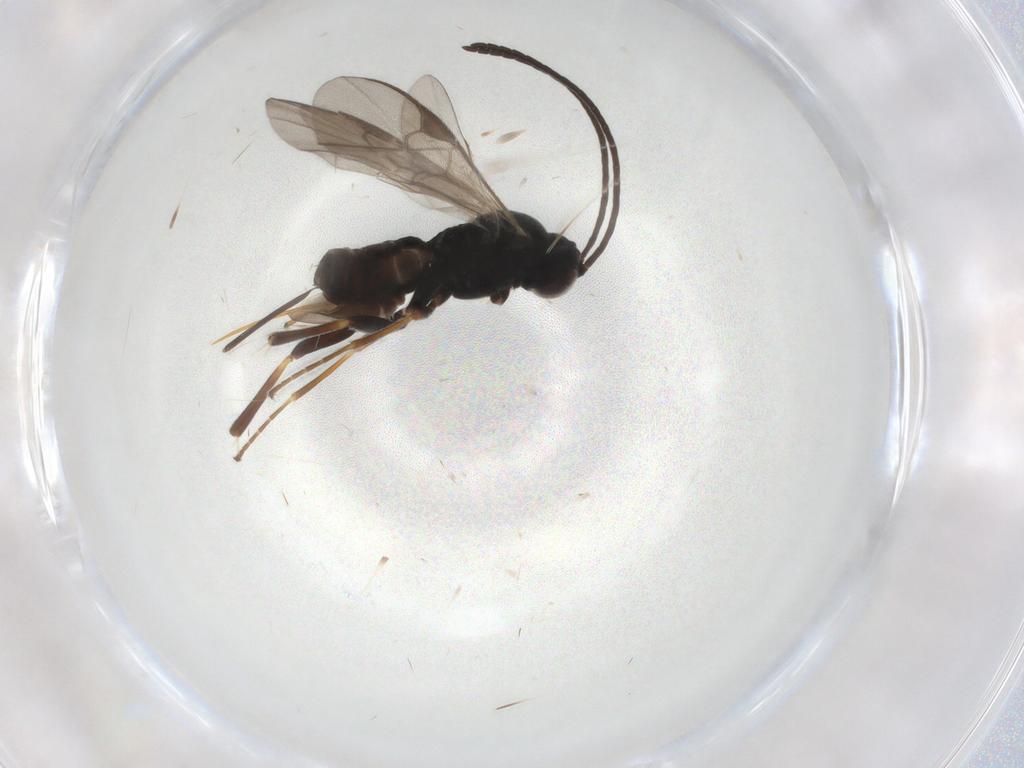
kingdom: Animalia
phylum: Arthropoda
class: Insecta
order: Hymenoptera
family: Braconidae
